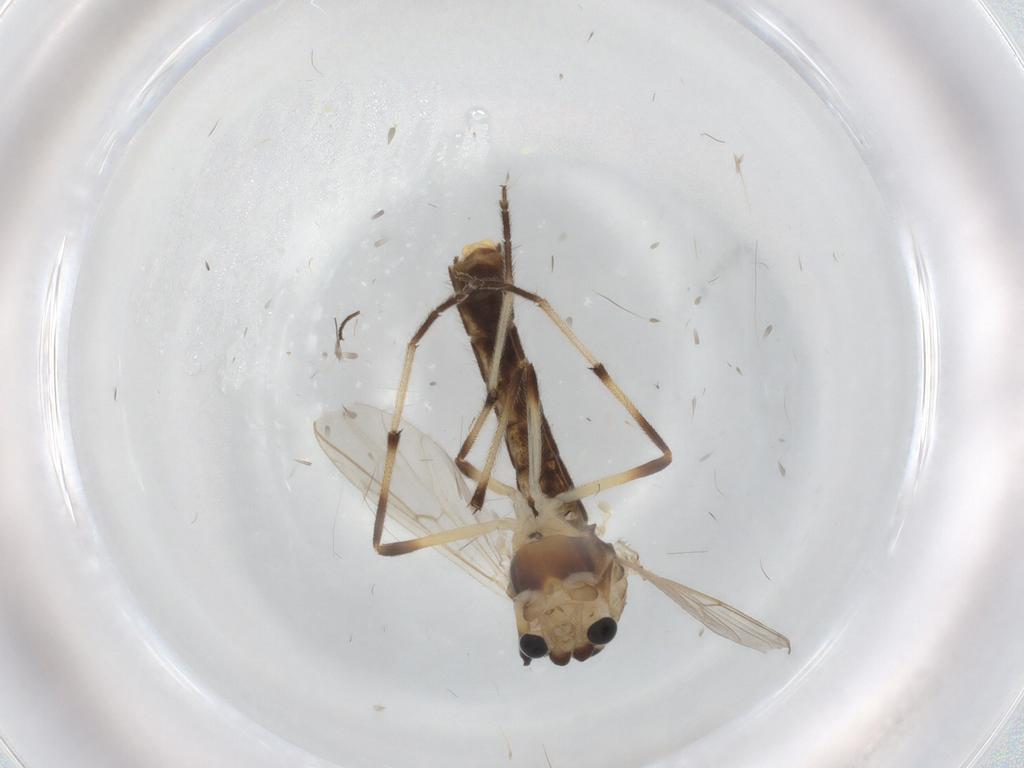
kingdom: Animalia
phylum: Arthropoda
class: Insecta
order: Diptera
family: Chironomidae
